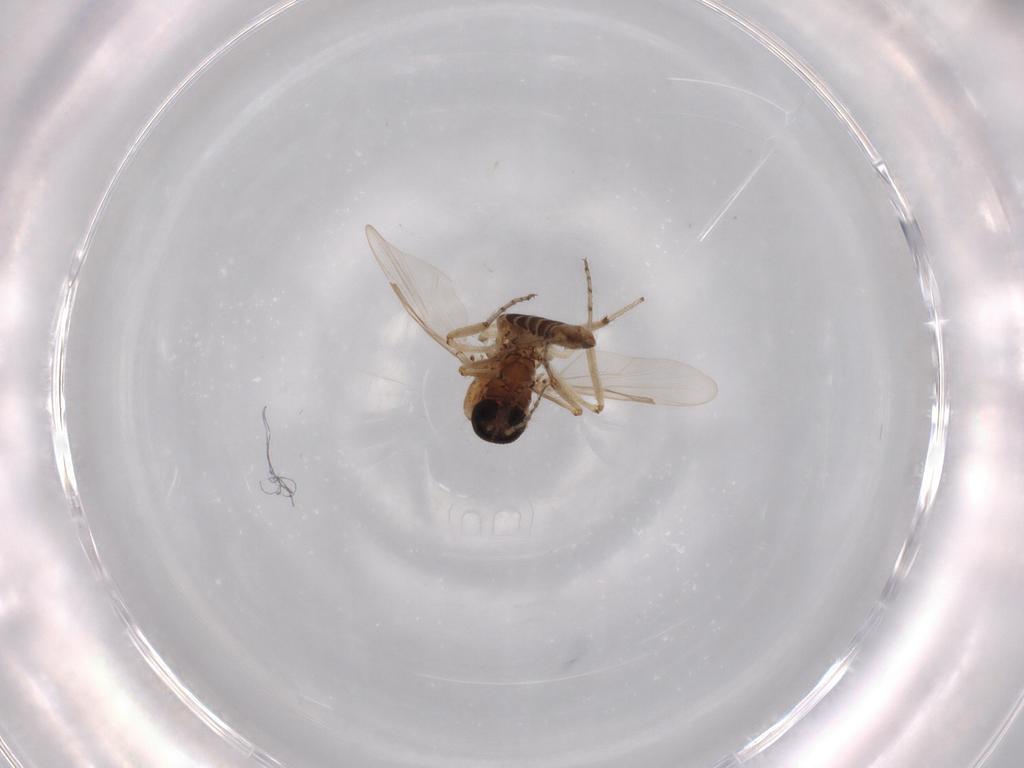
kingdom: Animalia
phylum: Arthropoda
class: Insecta
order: Diptera
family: Ceratopogonidae
